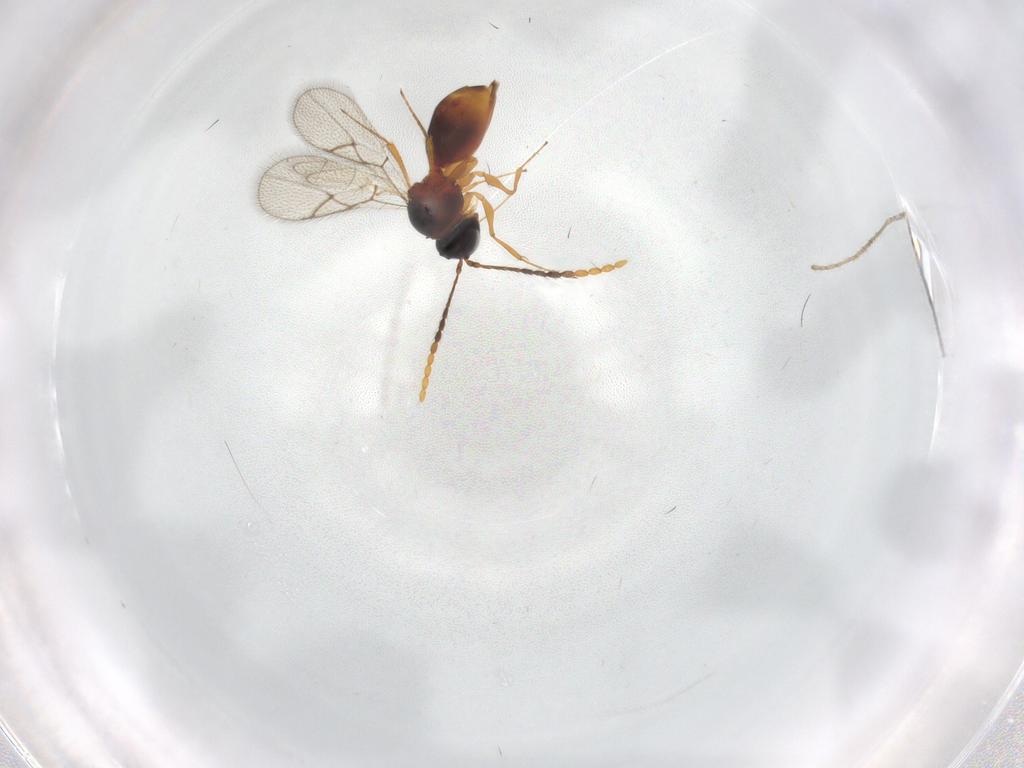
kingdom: Animalia
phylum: Arthropoda
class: Insecta
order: Hymenoptera
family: Figitidae
